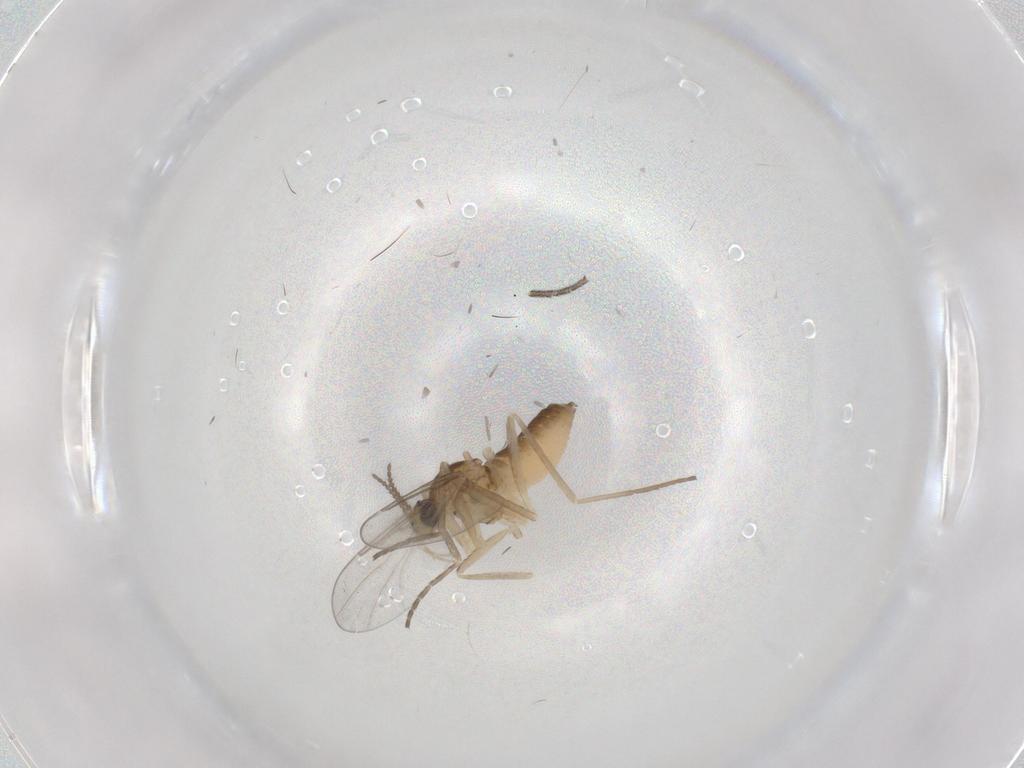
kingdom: Animalia
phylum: Arthropoda
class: Insecta
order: Diptera
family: Cecidomyiidae
